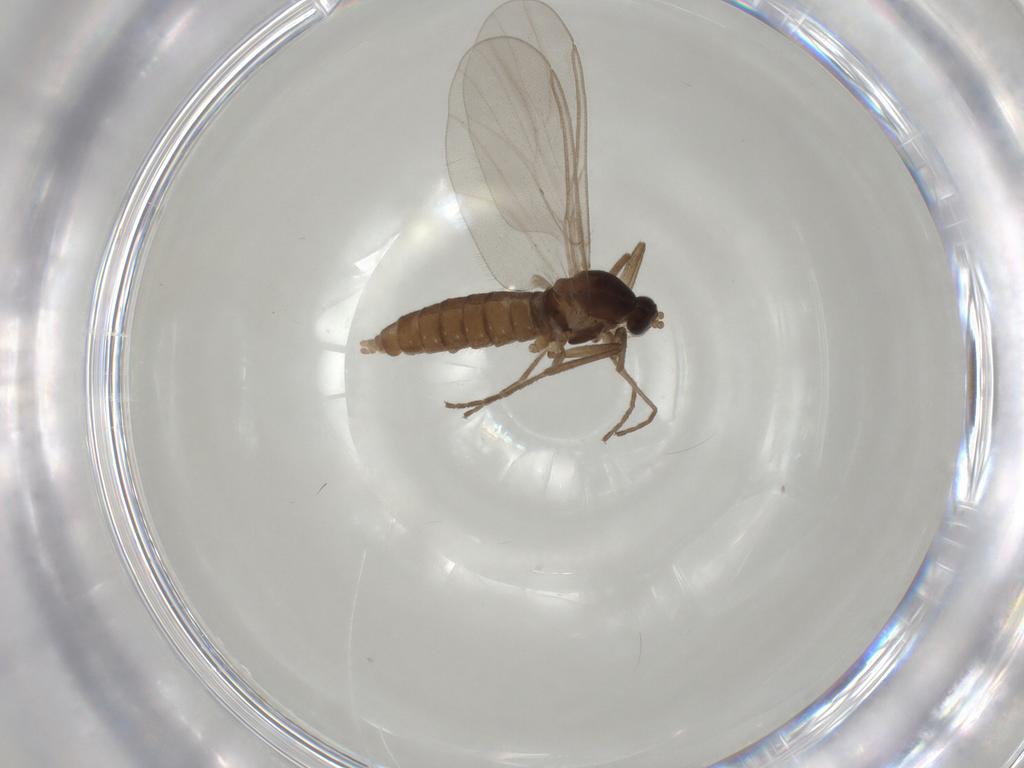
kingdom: Animalia
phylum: Arthropoda
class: Insecta
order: Diptera
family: Cecidomyiidae
